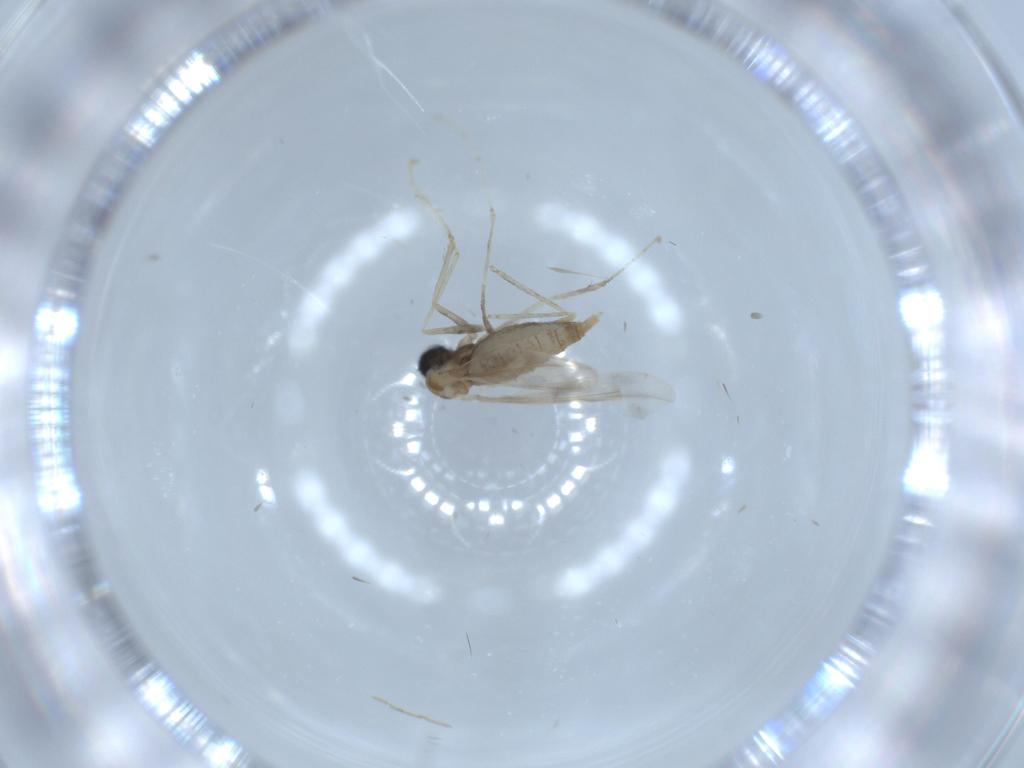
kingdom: Animalia
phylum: Arthropoda
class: Insecta
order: Diptera
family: Cecidomyiidae
